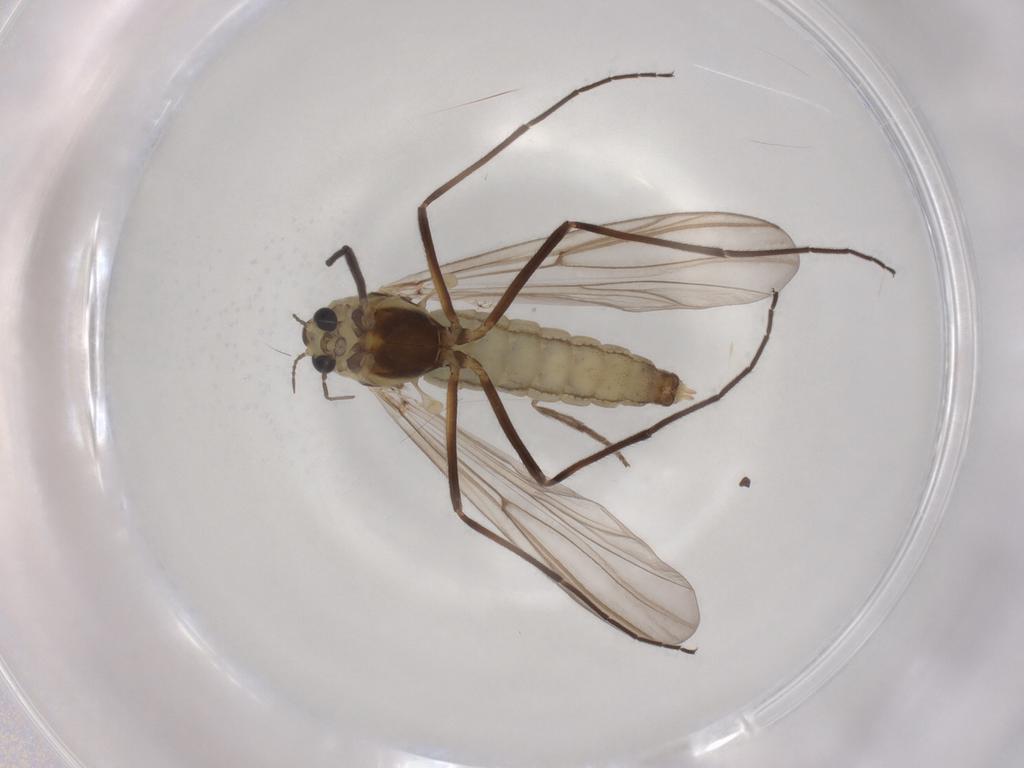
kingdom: Animalia
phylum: Arthropoda
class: Insecta
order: Diptera
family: Chironomidae
